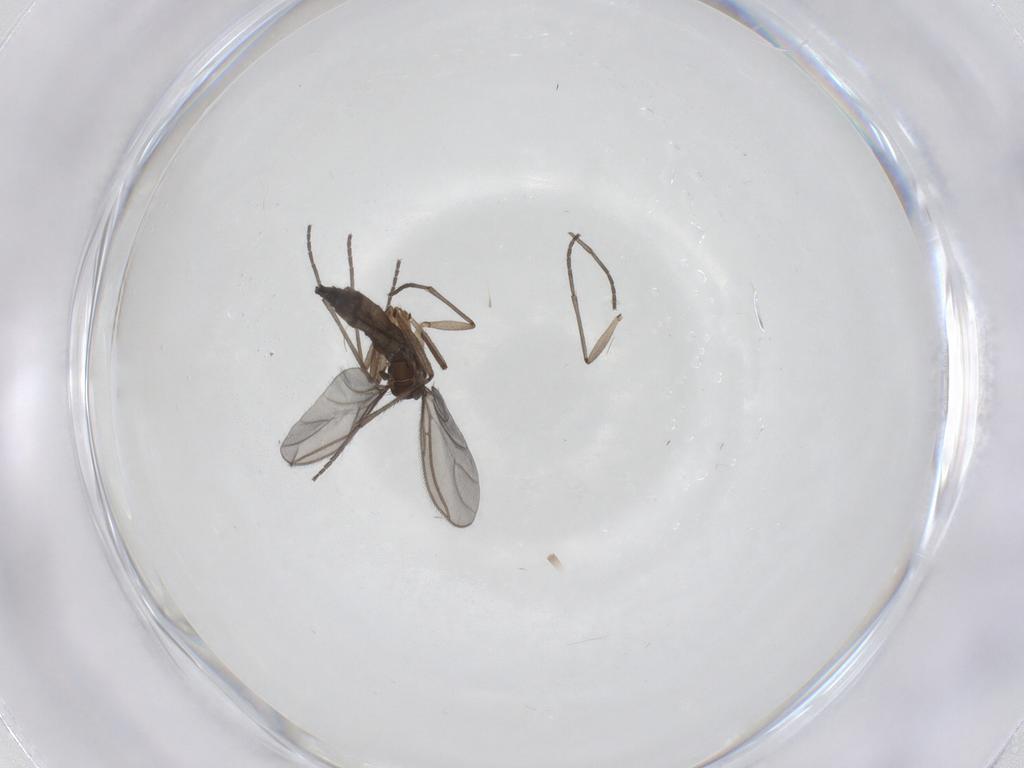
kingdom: Animalia
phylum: Arthropoda
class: Insecta
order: Diptera
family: Sciaridae
